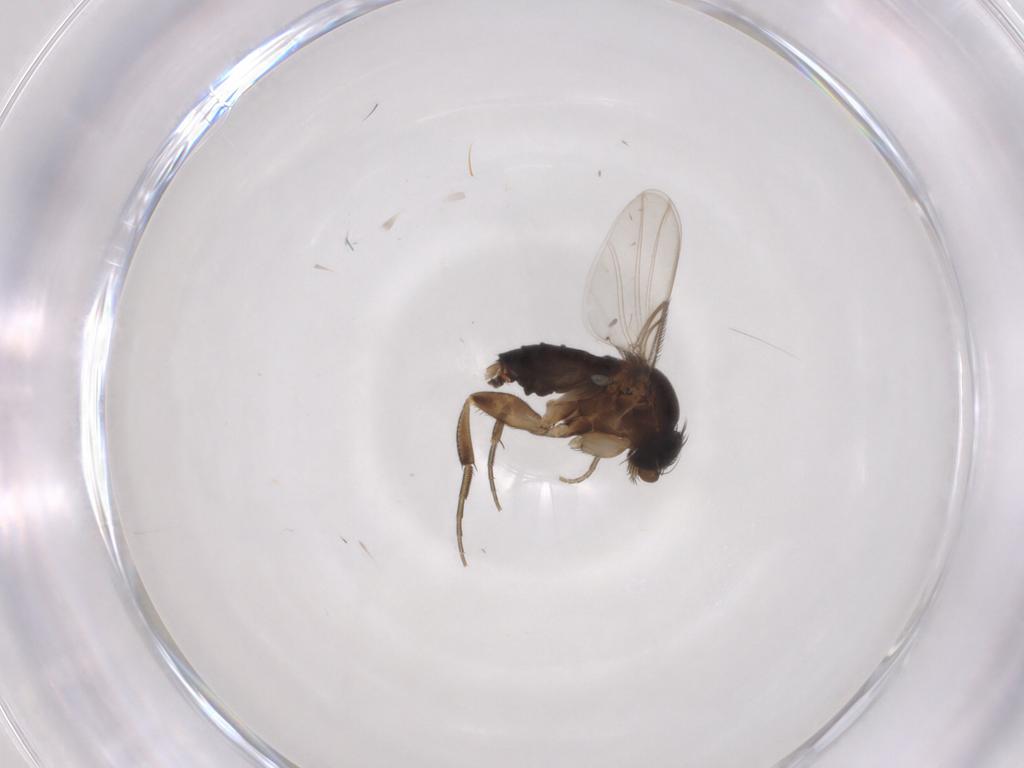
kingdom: Animalia
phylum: Arthropoda
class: Insecta
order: Diptera
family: Phoridae
